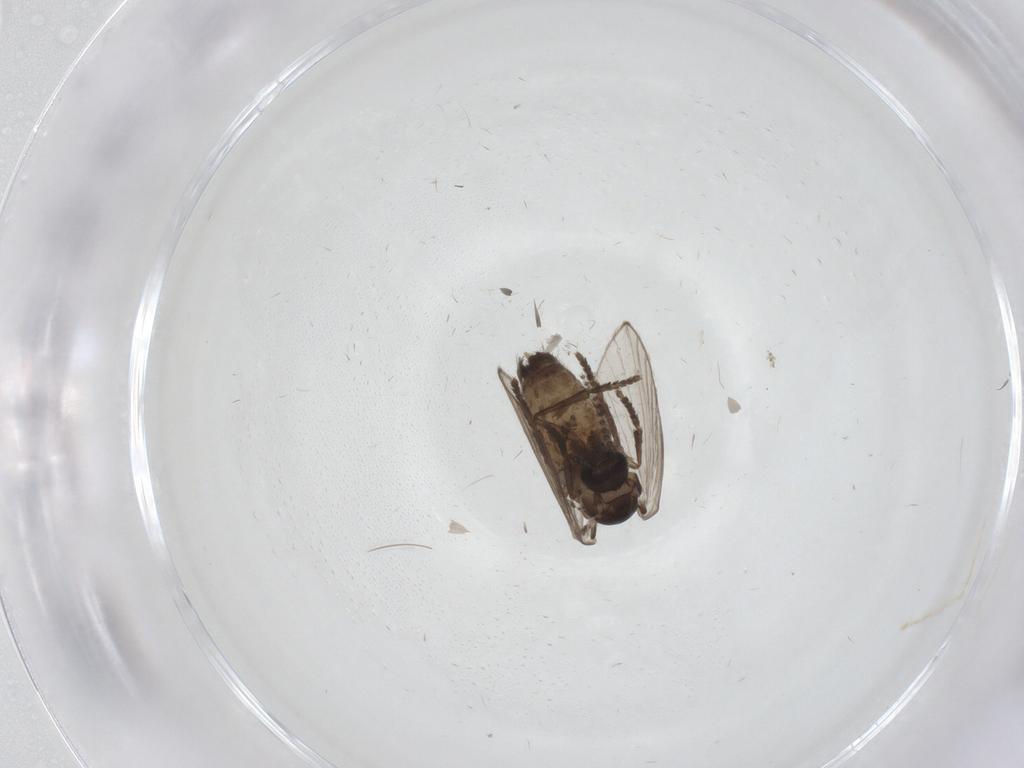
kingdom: Animalia
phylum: Arthropoda
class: Insecta
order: Diptera
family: Psychodidae
